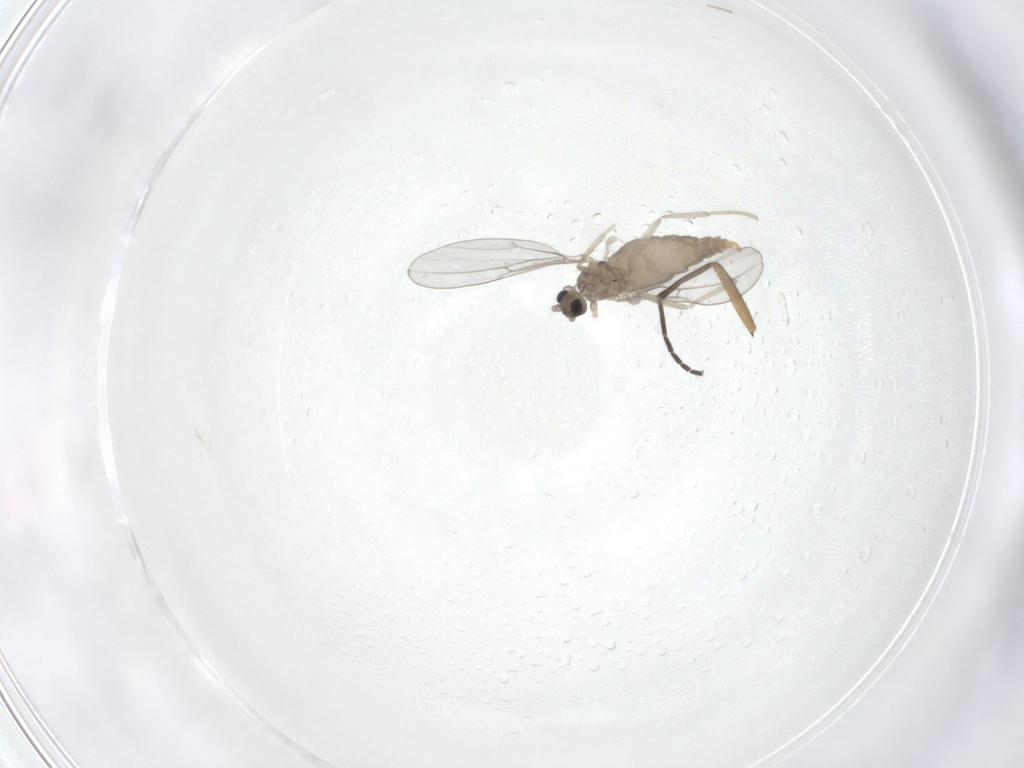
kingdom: Animalia
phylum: Arthropoda
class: Insecta
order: Diptera
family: Cecidomyiidae
